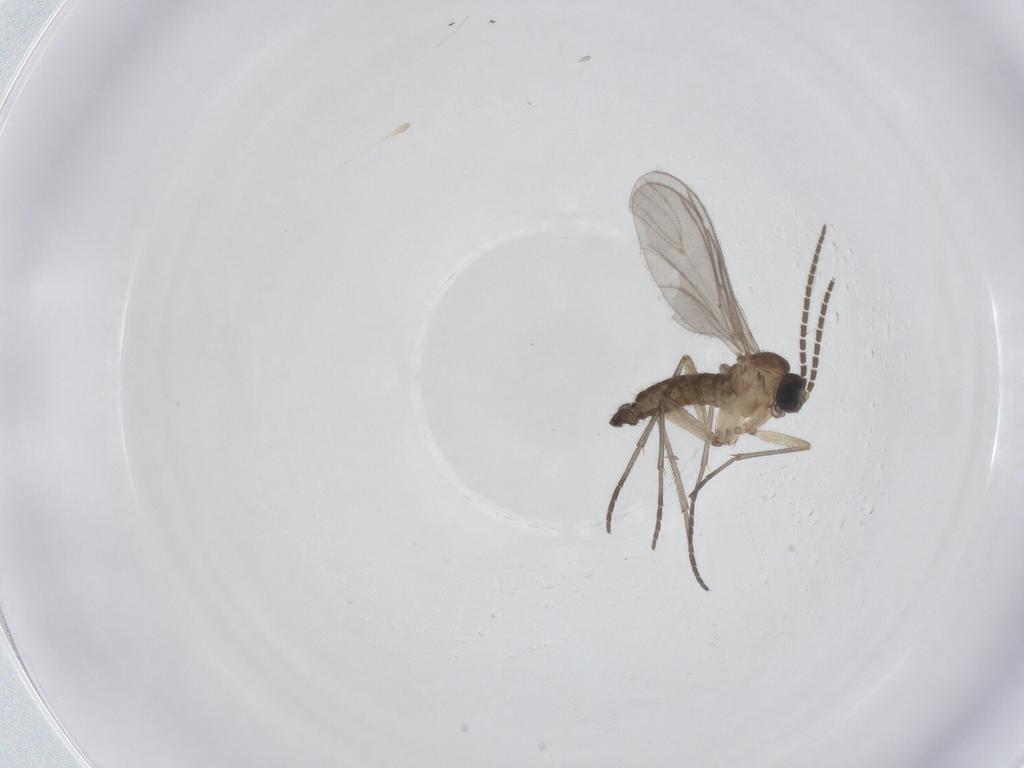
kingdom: Animalia
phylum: Arthropoda
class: Insecta
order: Diptera
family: Sciaridae
